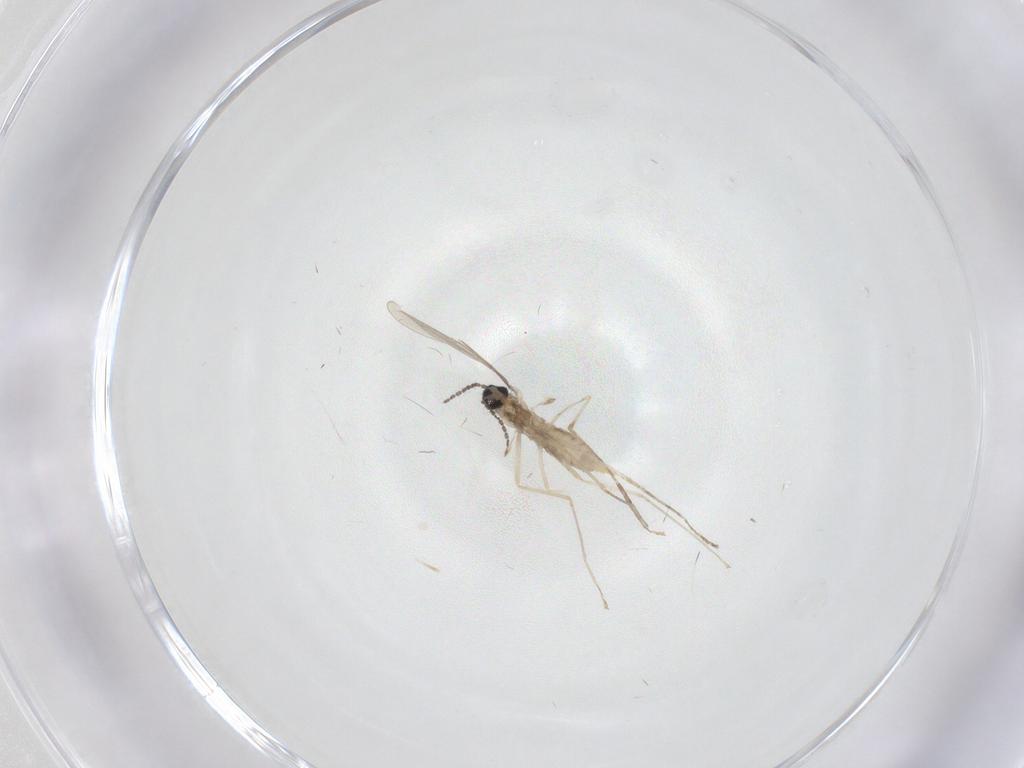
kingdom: Animalia
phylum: Arthropoda
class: Insecta
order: Diptera
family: Cecidomyiidae
